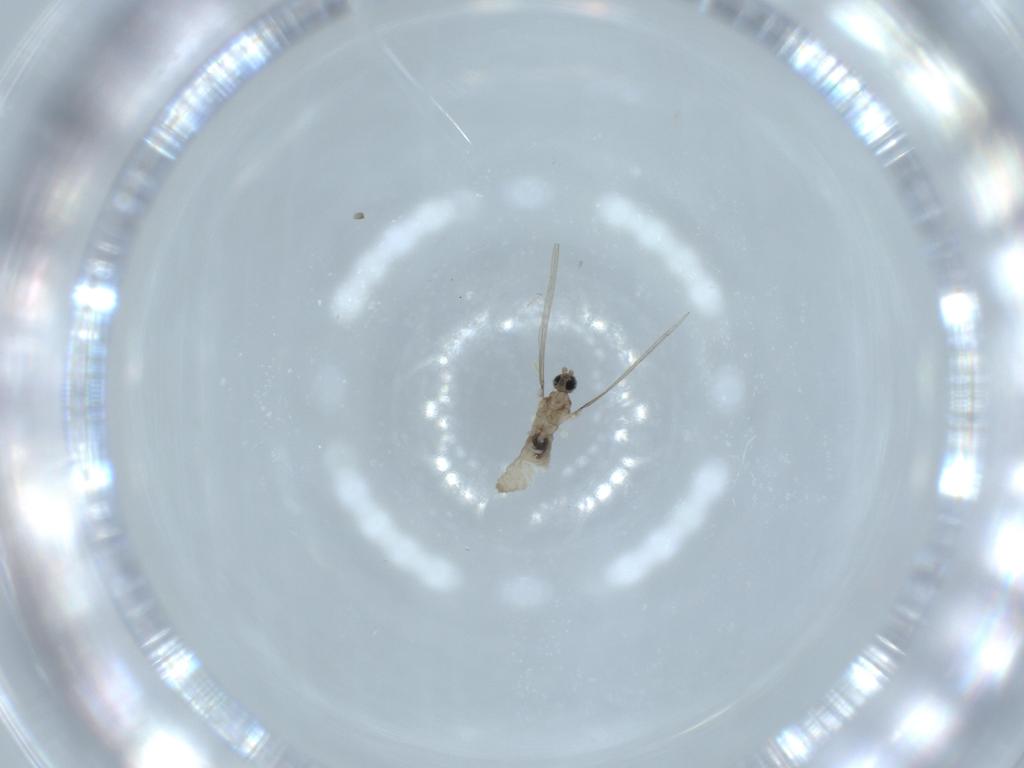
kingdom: Animalia
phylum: Arthropoda
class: Insecta
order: Diptera
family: Cecidomyiidae
